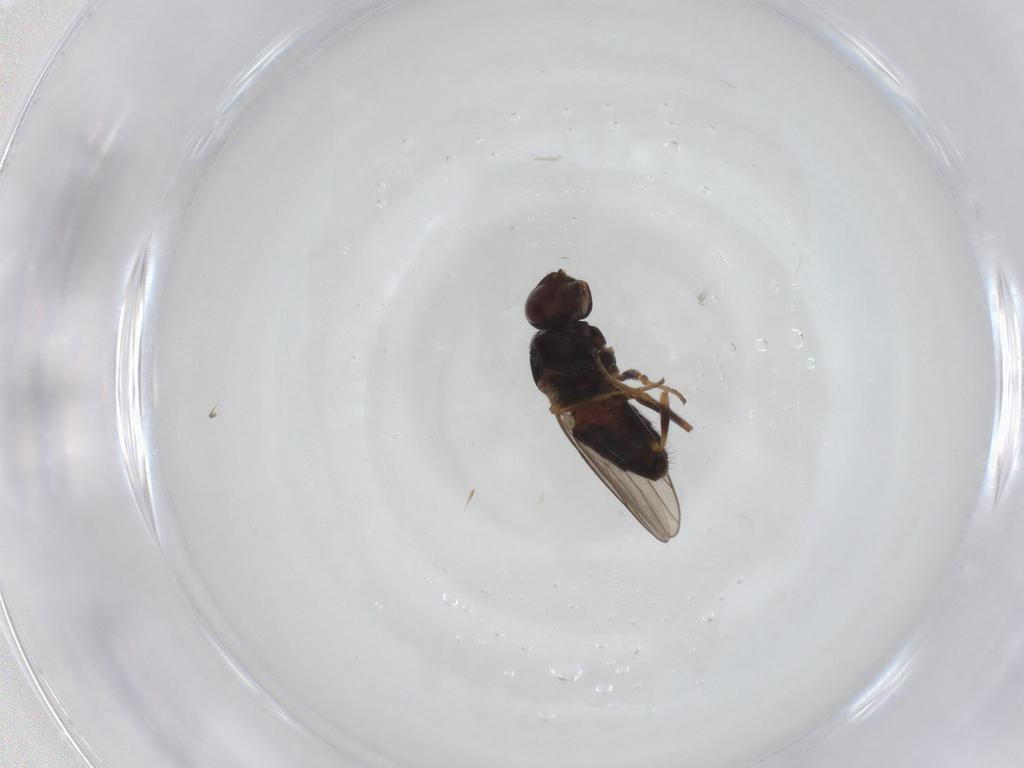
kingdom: Animalia
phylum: Arthropoda
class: Insecta
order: Diptera
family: Chloropidae
